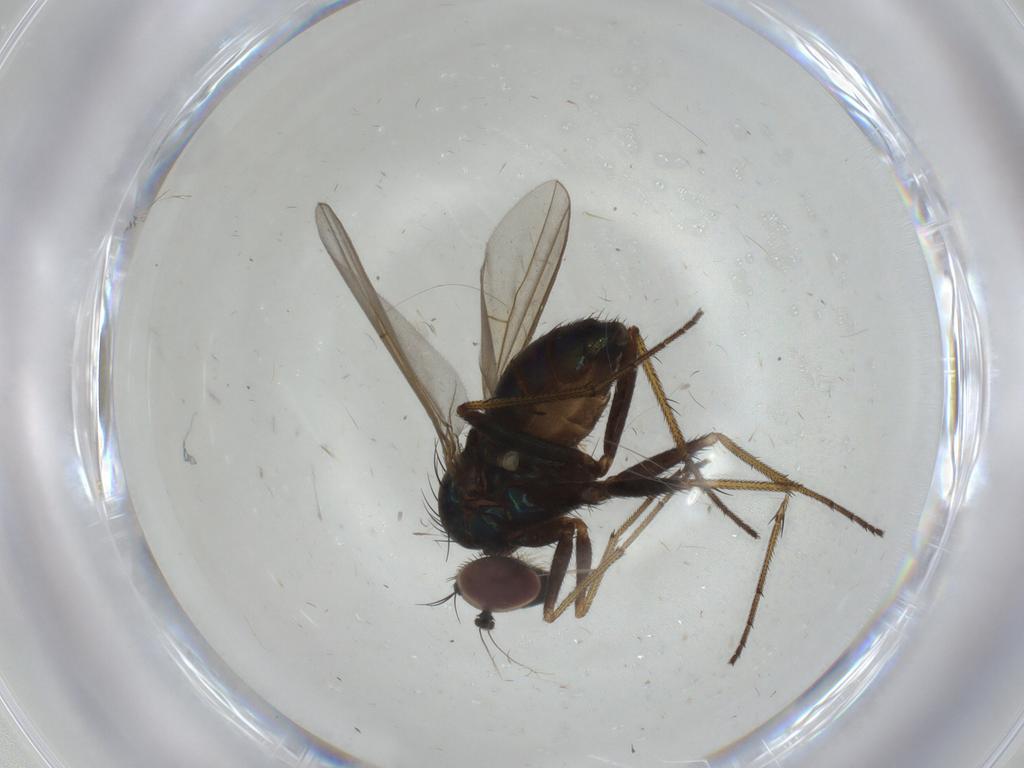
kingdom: Animalia
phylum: Arthropoda
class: Insecta
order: Diptera
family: Dolichopodidae
